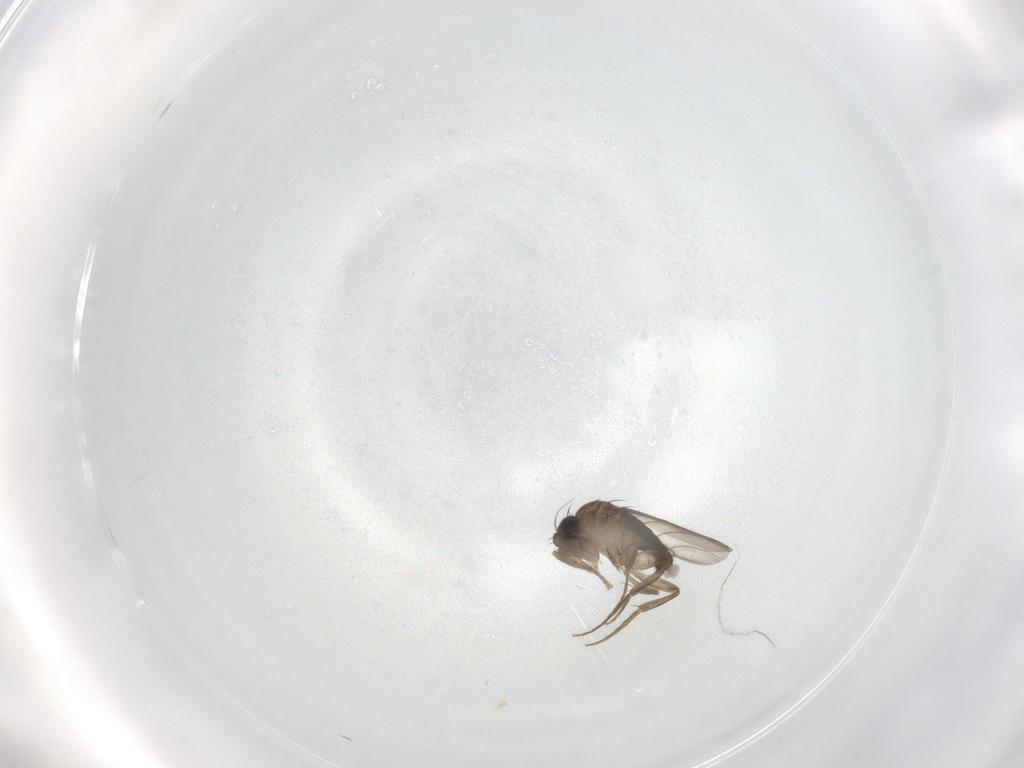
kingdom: Animalia
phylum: Arthropoda
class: Insecta
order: Diptera
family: Phoridae
